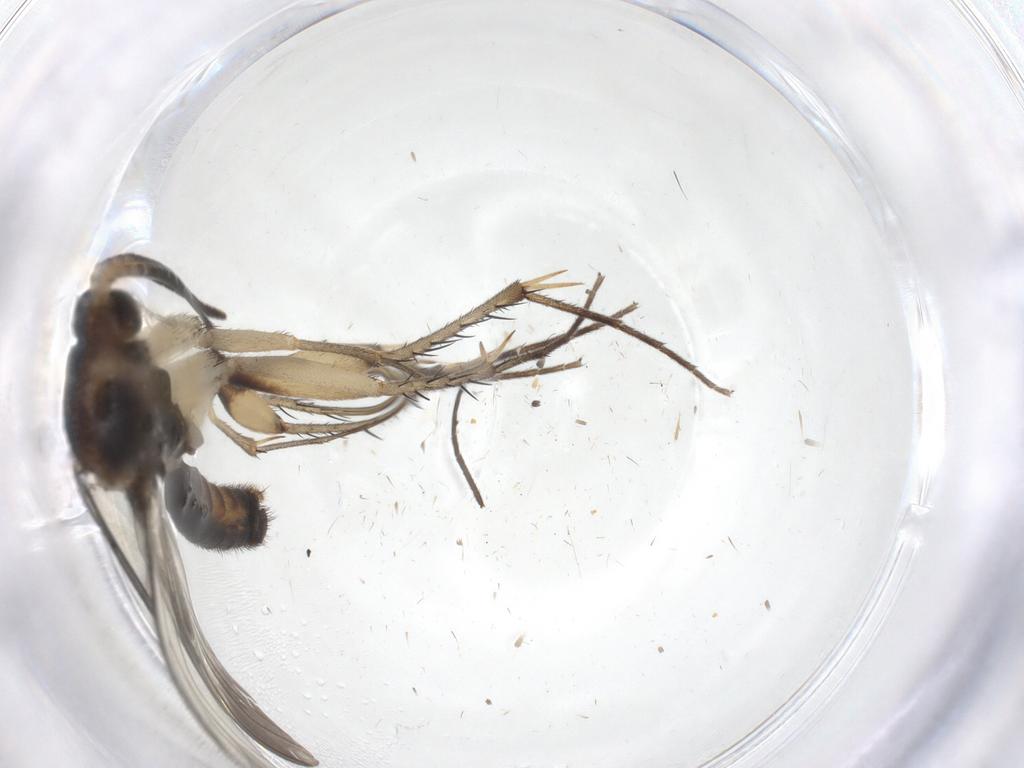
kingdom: Animalia
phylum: Arthropoda
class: Insecta
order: Diptera
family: Mycetophilidae
